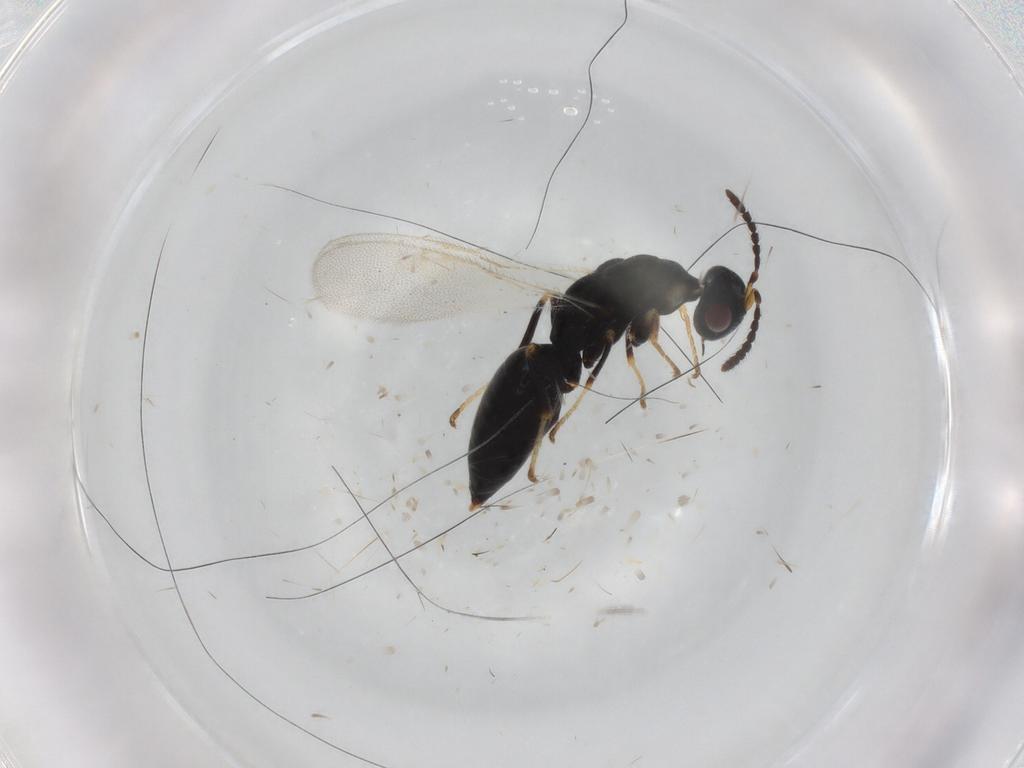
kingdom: Animalia
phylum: Arthropoda
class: Insecta
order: Hymenoptera
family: Eurytomidae
